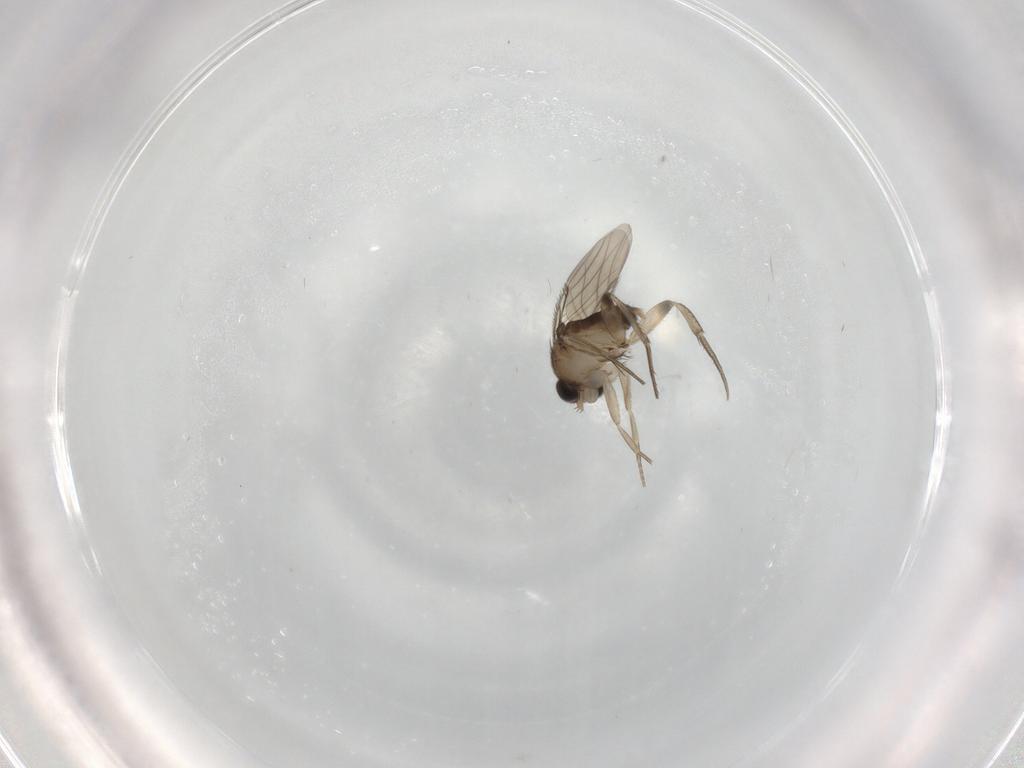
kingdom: Animalia
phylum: Arthropoda
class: Insecta
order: Diptera
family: Phoridae
